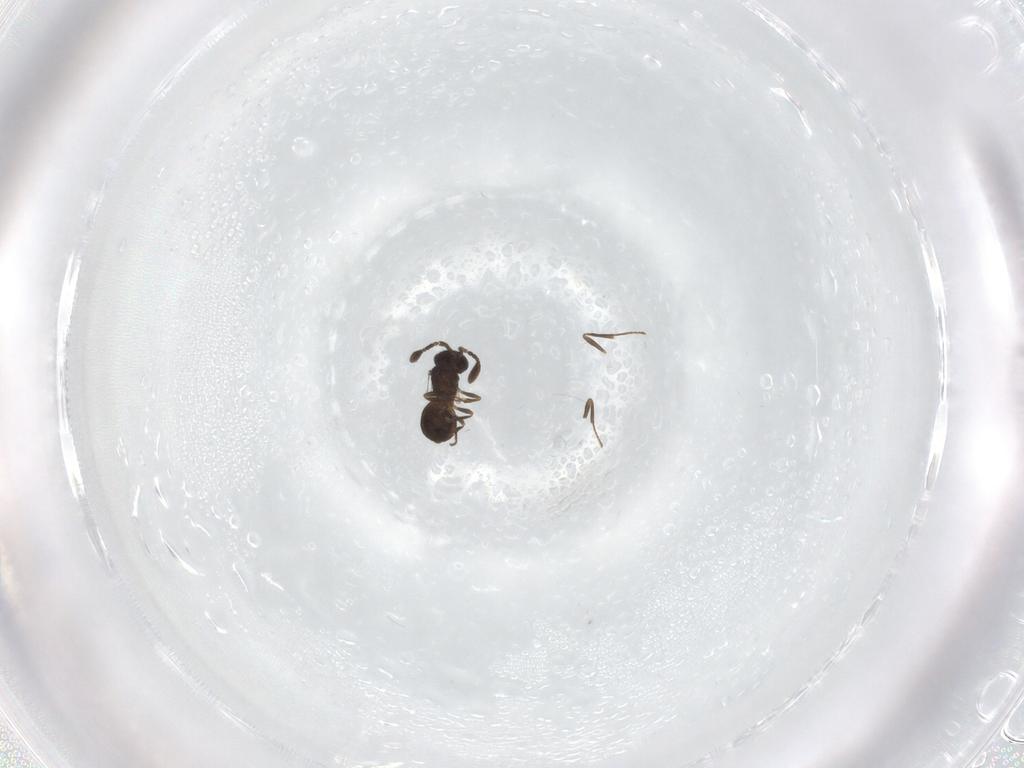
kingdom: Animalia
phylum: Arthropoda
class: Insecta
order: Hymenoptera
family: Scelionidae
